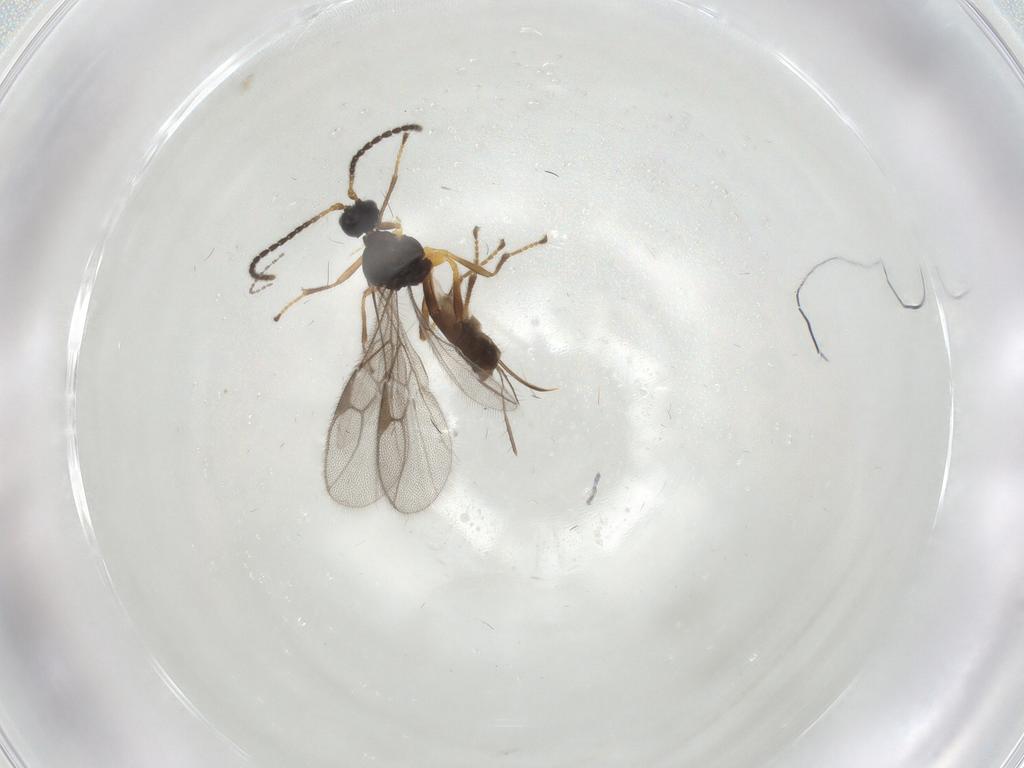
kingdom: Animalia
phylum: Arthropoda
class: Insecta
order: Hymenoptera
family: Braconidae
